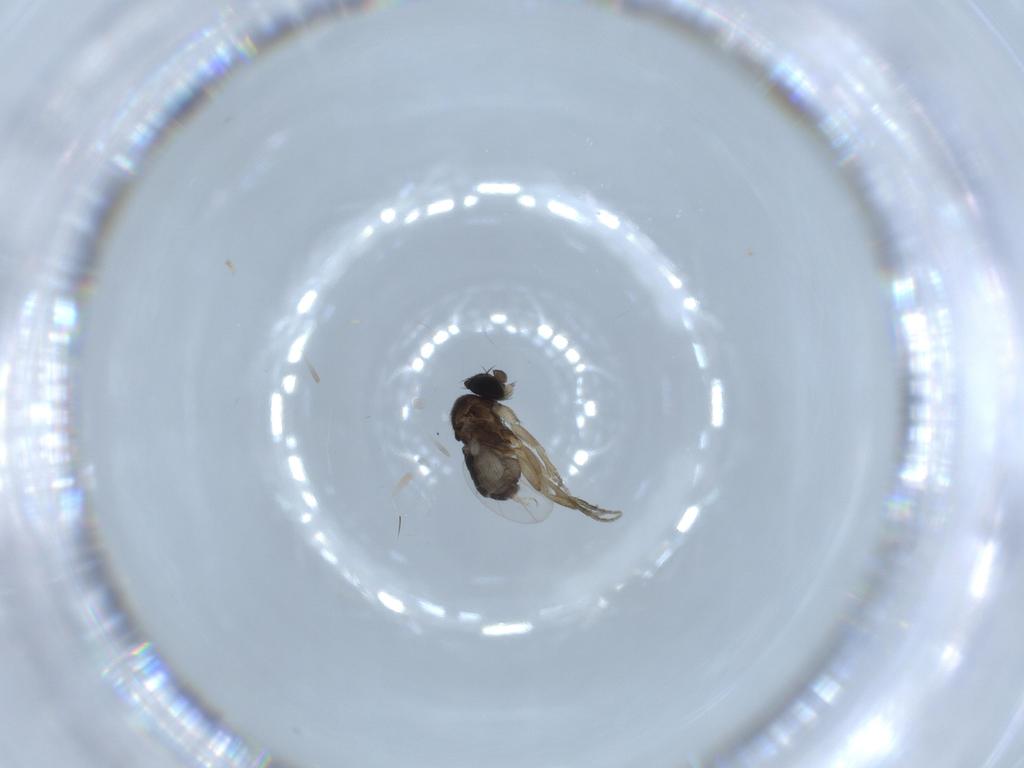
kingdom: Animalia
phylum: Arthropoda
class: Insecta
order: Diptera
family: Phoridae
